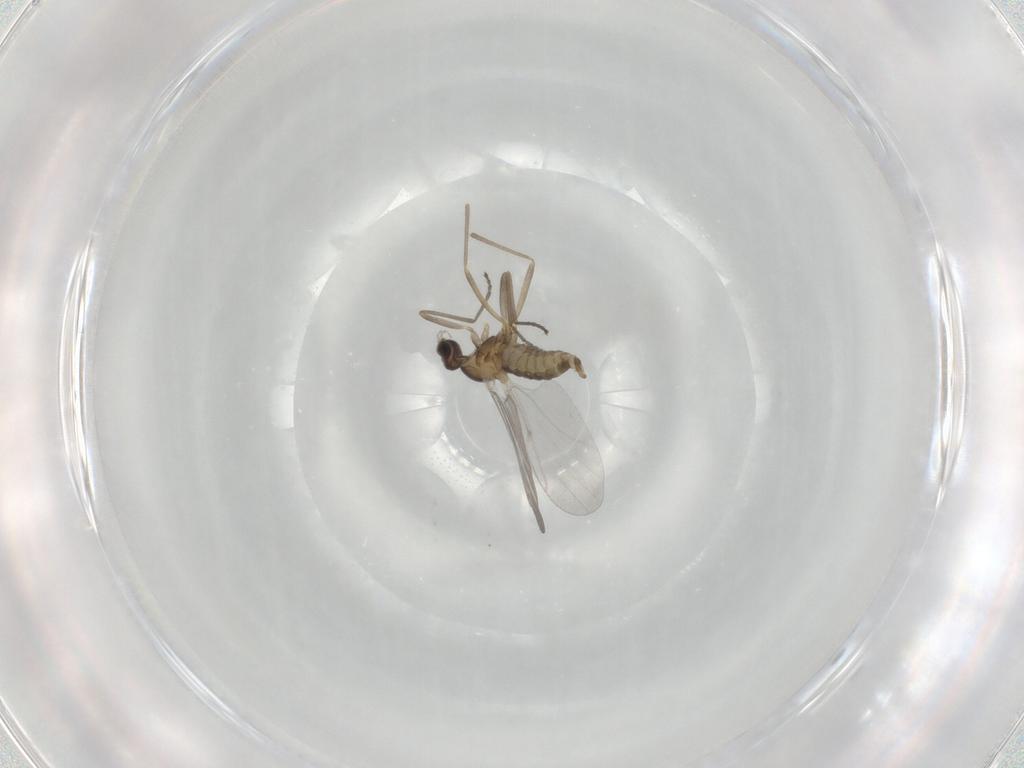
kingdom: Animalia
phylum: Arthropoda
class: Insecta
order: Diptera
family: Cecidomyiidae
